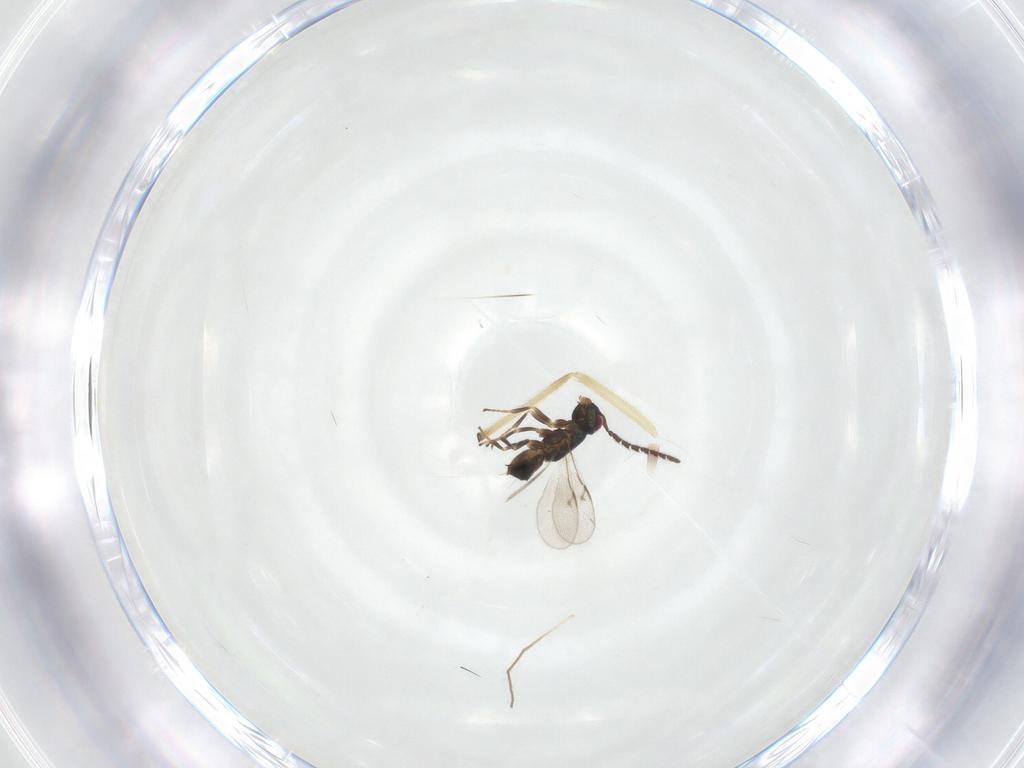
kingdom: Animalia
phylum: Arthropoda
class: Insecta
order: Hymenoptera
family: Encyrtidae
